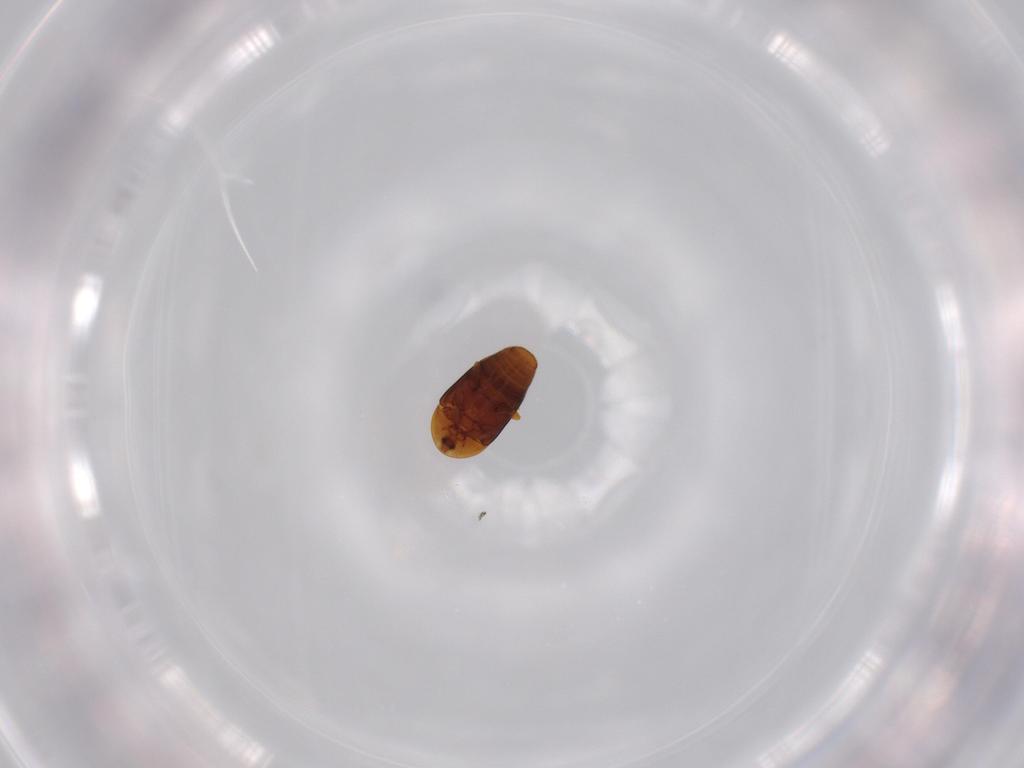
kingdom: Animalia
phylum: Arthropoda
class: Insecta
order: Coleoptera
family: Corylophidae
